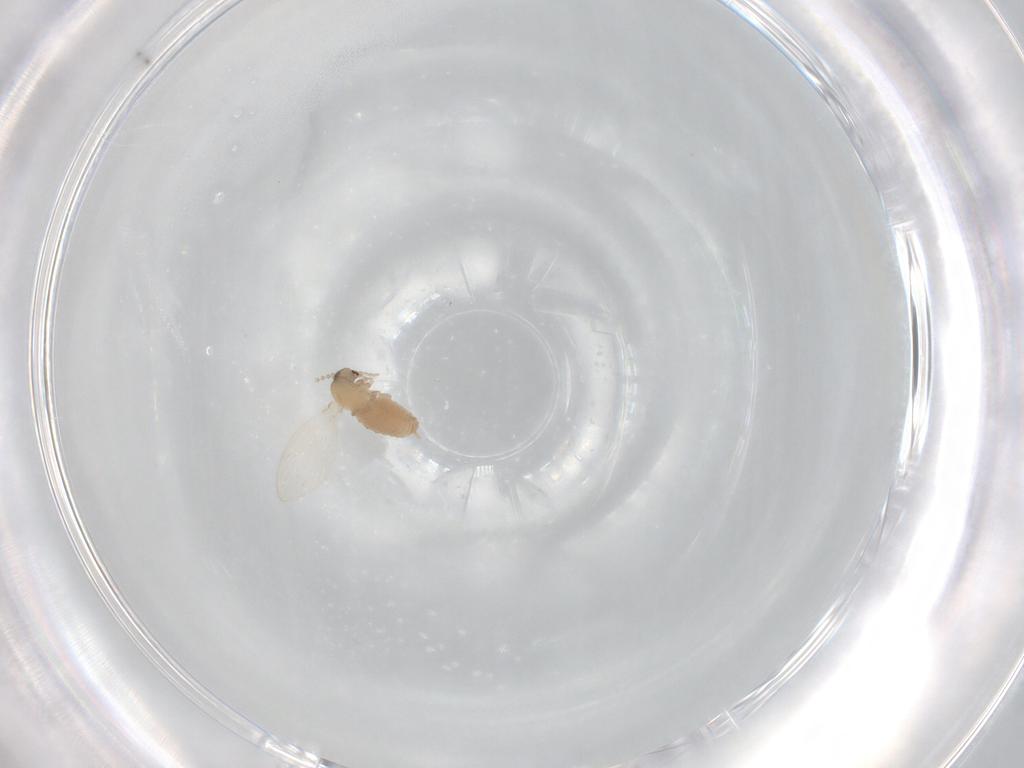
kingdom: Animalia
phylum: Arthropoda
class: Insecta
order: Diptera
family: Psychodidae
